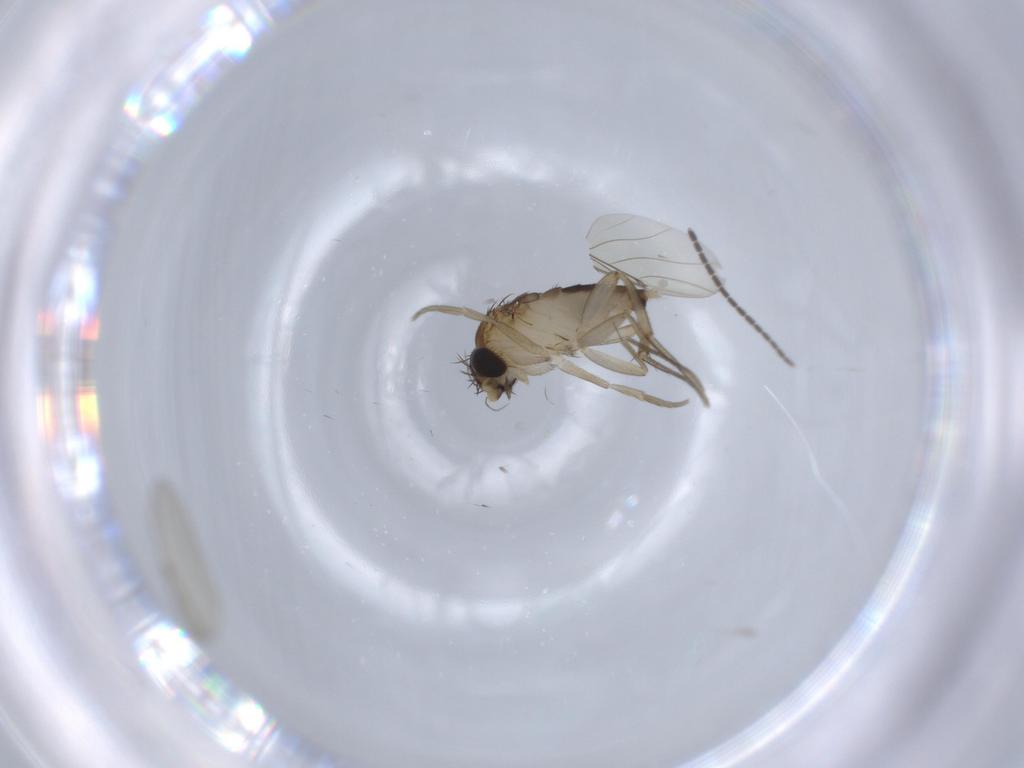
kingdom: Animalia
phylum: Arthropoda
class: Insecta
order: Diptera
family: Sciaridae
